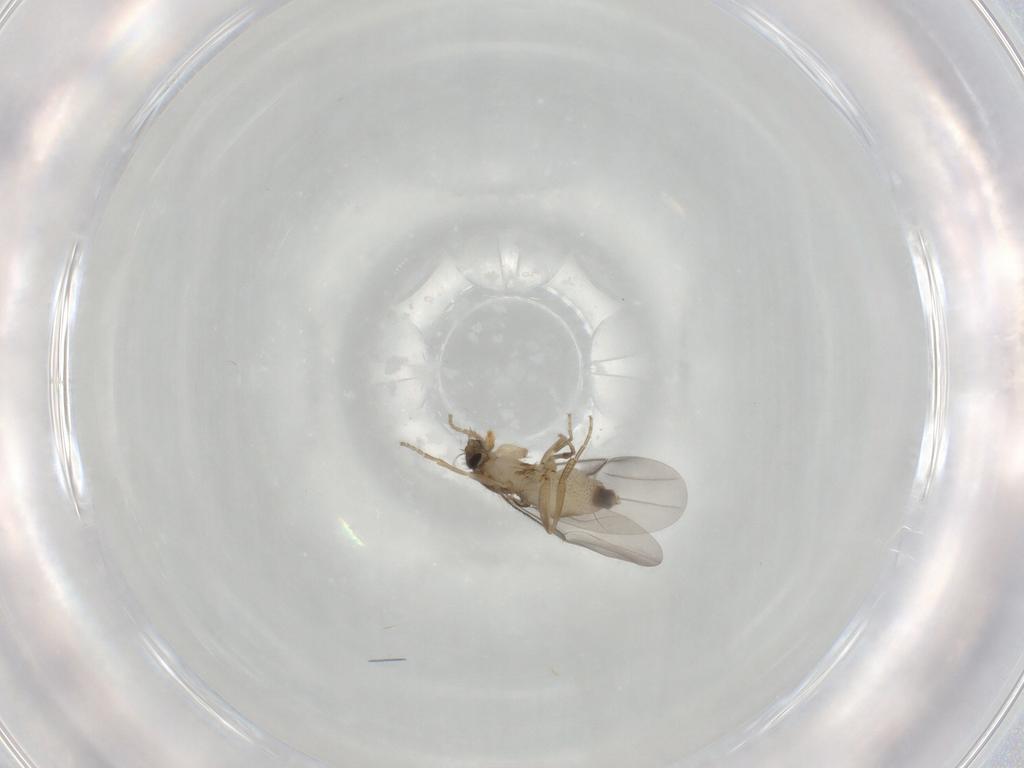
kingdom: Animalia
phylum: Arthropoda
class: Insecta
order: Diptera
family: Phoridae
